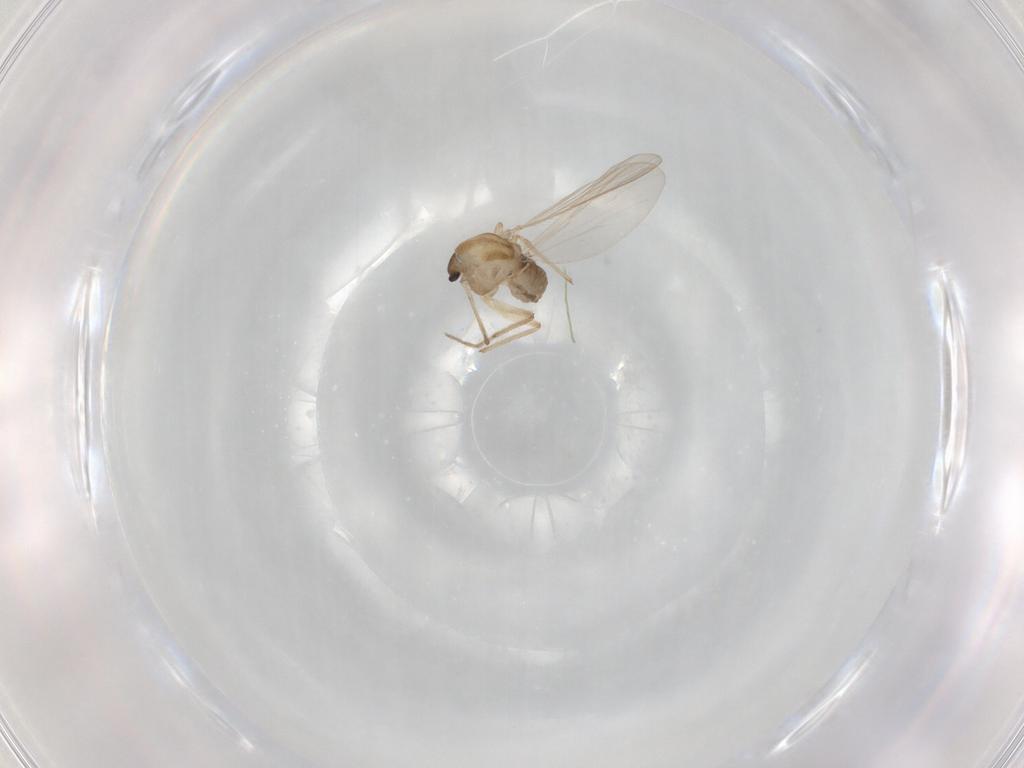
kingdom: Animalia
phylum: Arthropoda
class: Insecta
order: Diptera
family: Chironomidae
